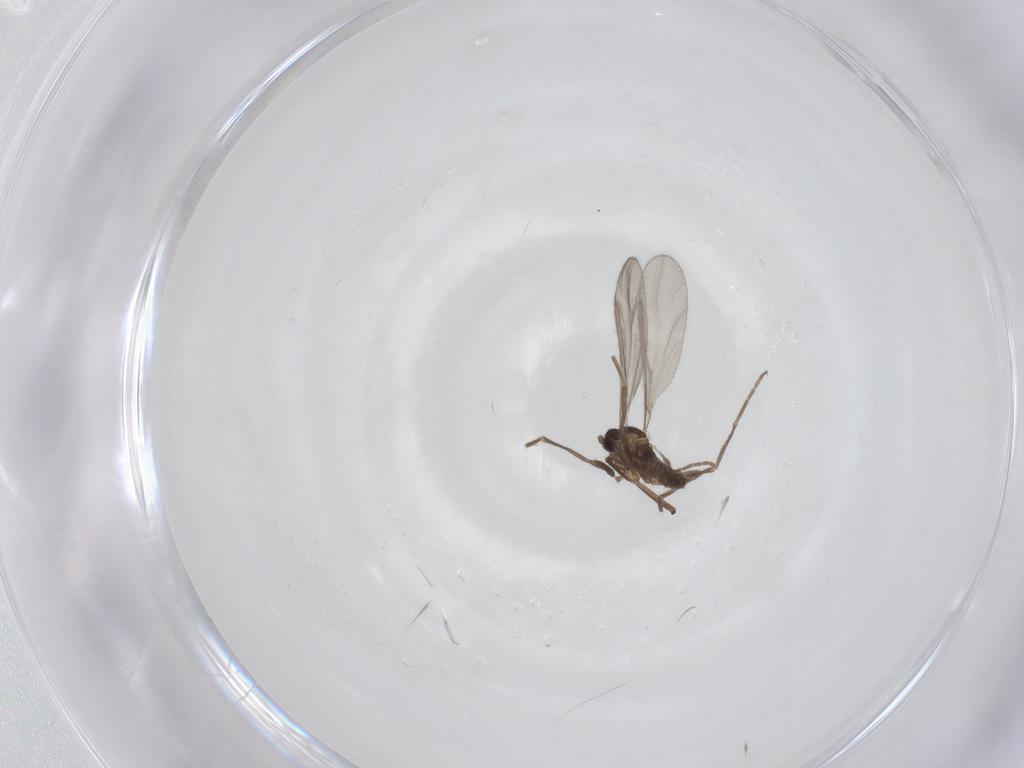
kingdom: Animalia
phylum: Arthropoda
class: Insecta
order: Diptera
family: Cecidomyiidae
